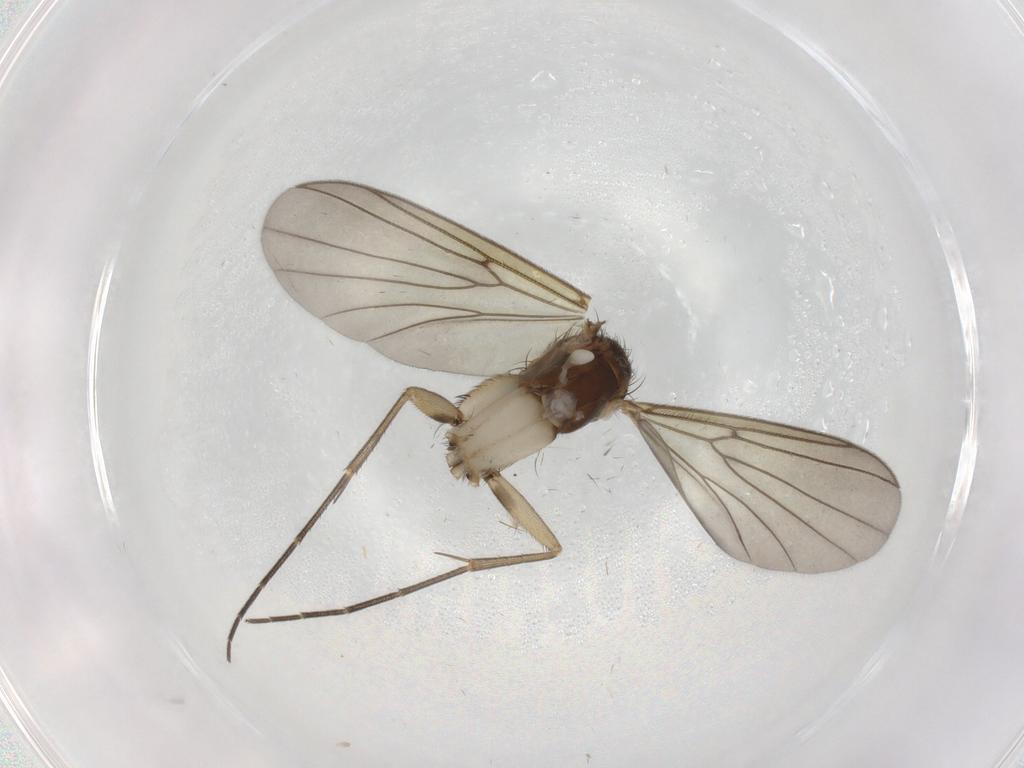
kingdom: Animalia
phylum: Arthropoda
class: Insecta
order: Diptera
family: Mycetophilidae
